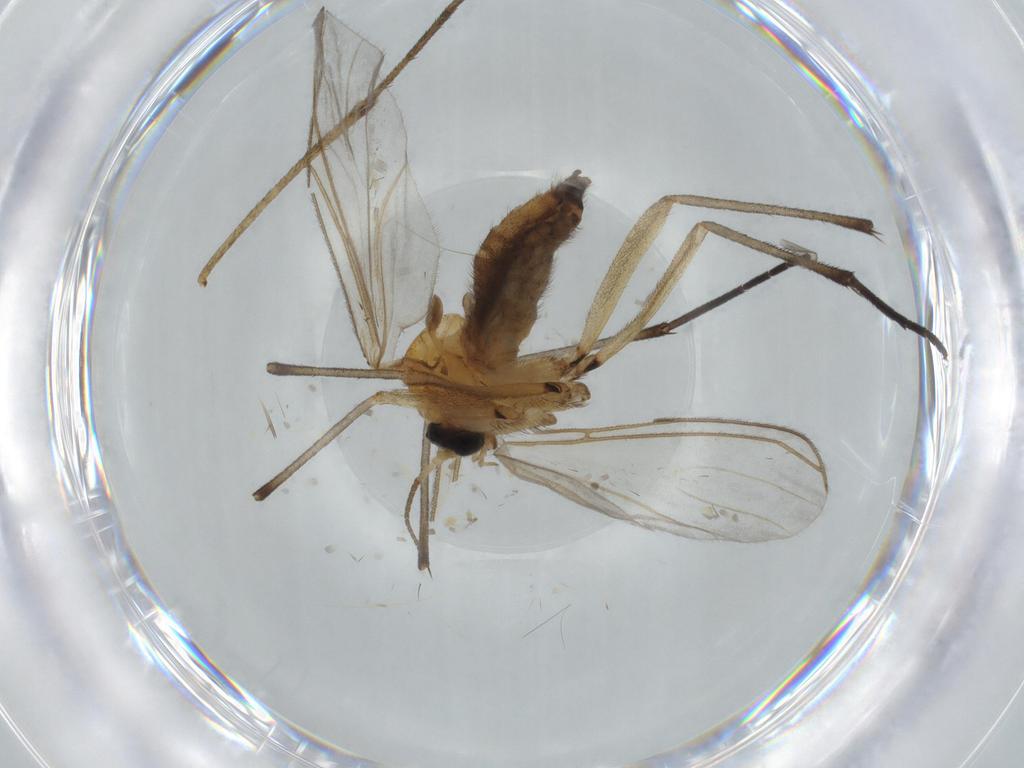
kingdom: Animalia
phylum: Arthropoda
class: Insecta
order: Diptera
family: Sciaridae
